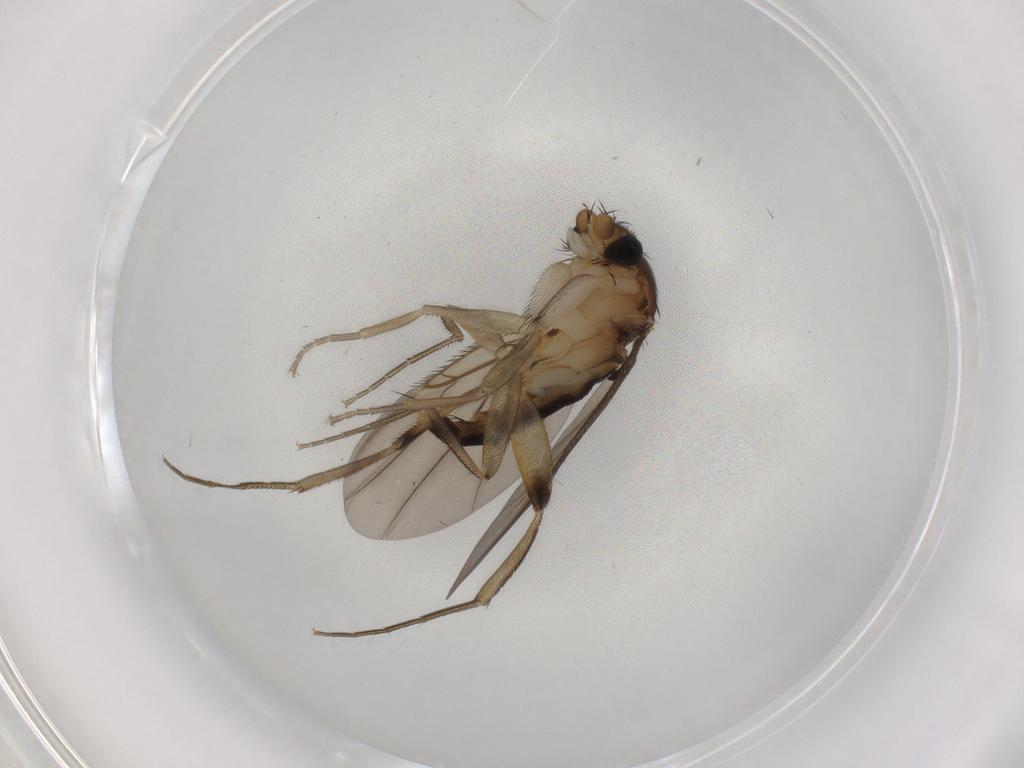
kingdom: Animalia
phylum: Arthropoda
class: Insecta
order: Diptera
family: Phoridae
